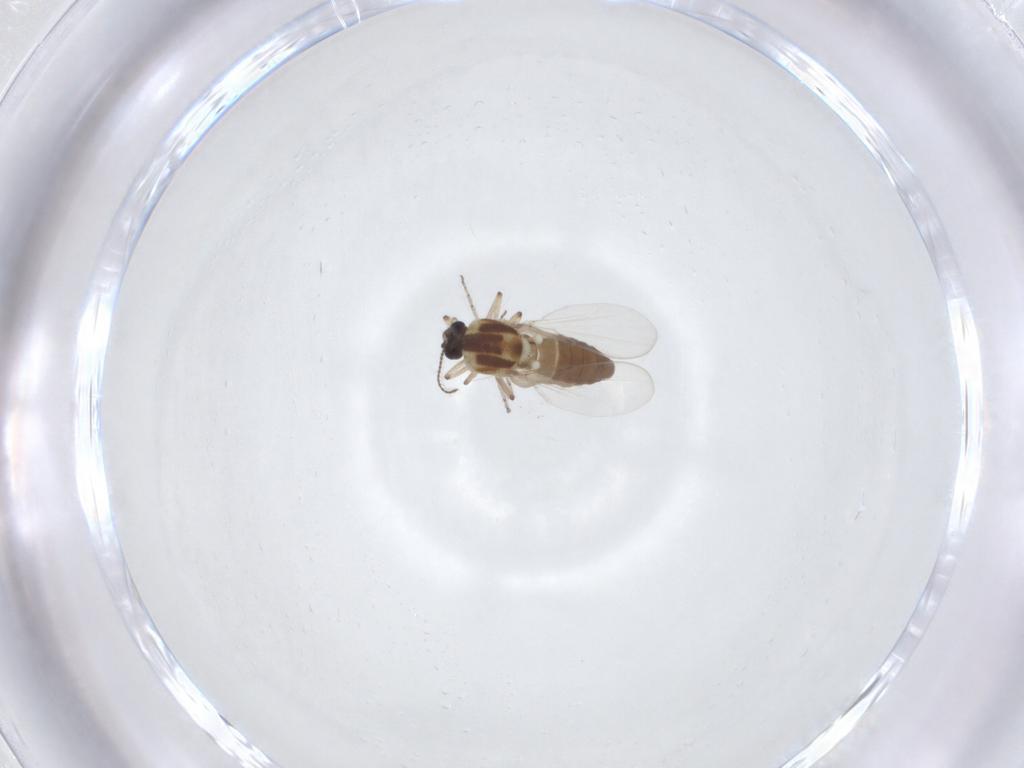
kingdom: Animalia
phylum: Arthropoda
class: Insecta
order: Diptera
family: Ceratopogonidae
